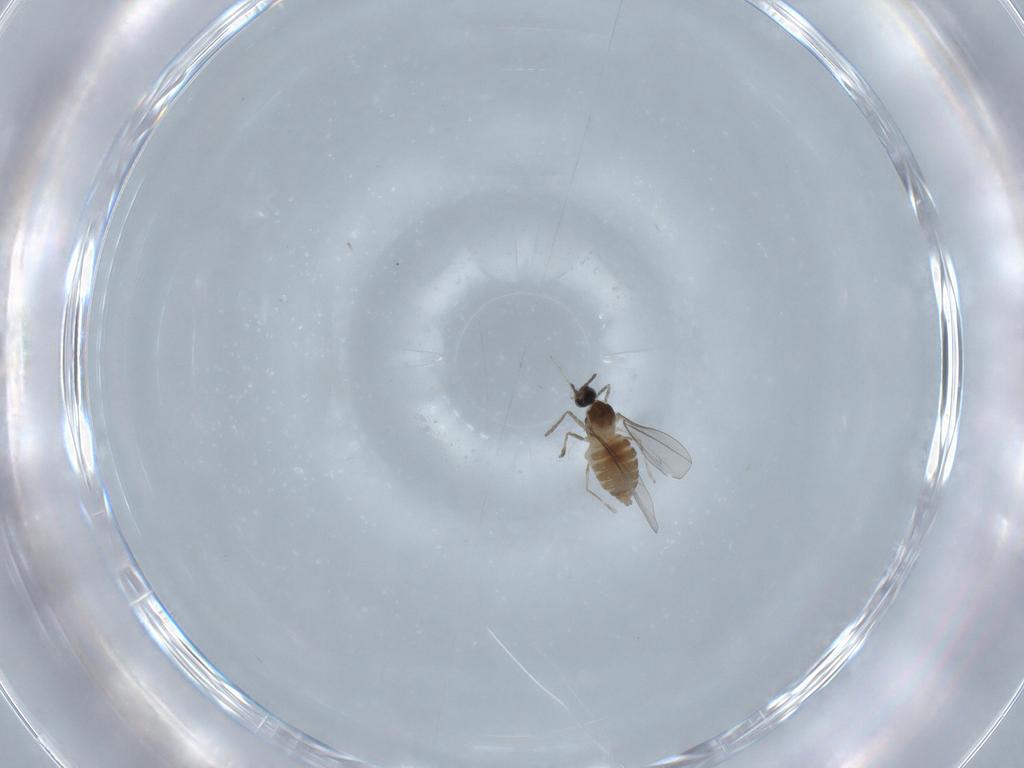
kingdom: Animalia
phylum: Arthropoda
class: Insecta
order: Diptera
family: Cecidomyiidae
